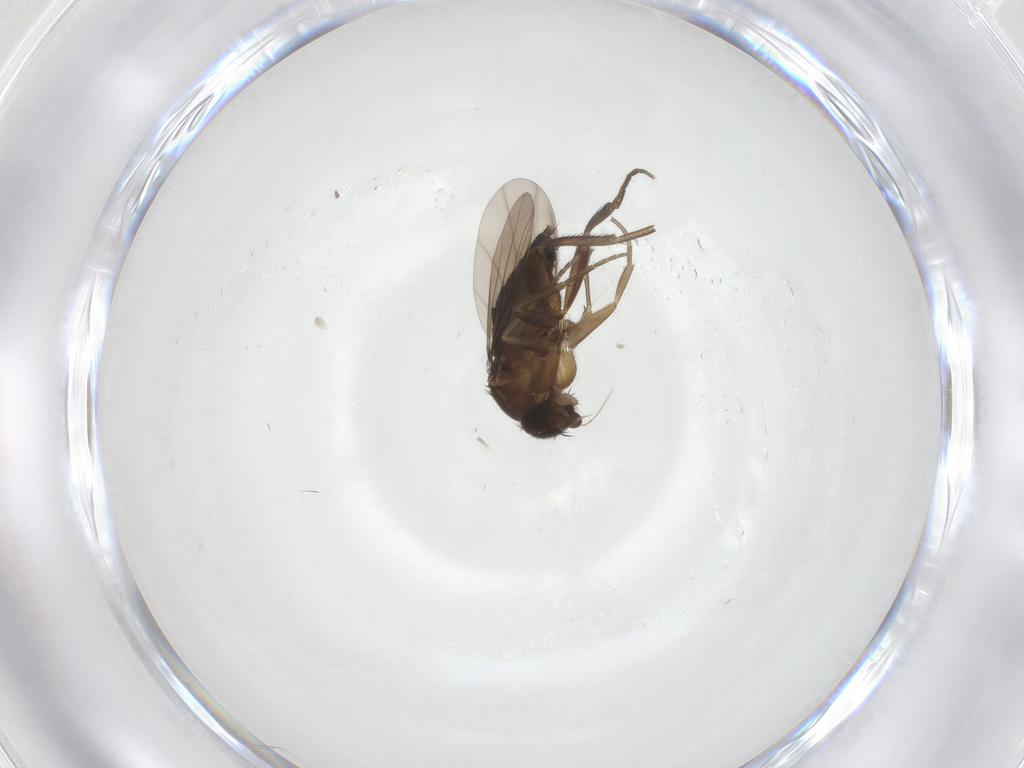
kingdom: Animalia
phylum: Arthropoda
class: Insecta
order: Diptera
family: Phoridae
